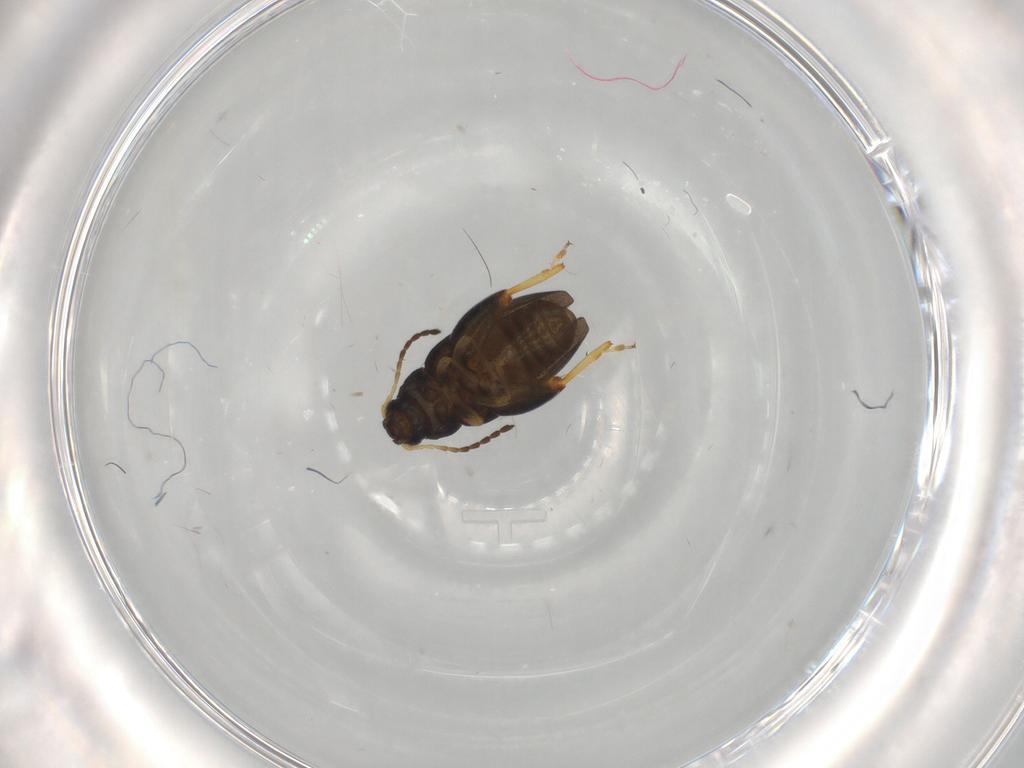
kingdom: Animalia
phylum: Arthropoda
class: Insecta
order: Coleoptera
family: Chrysomelidae
